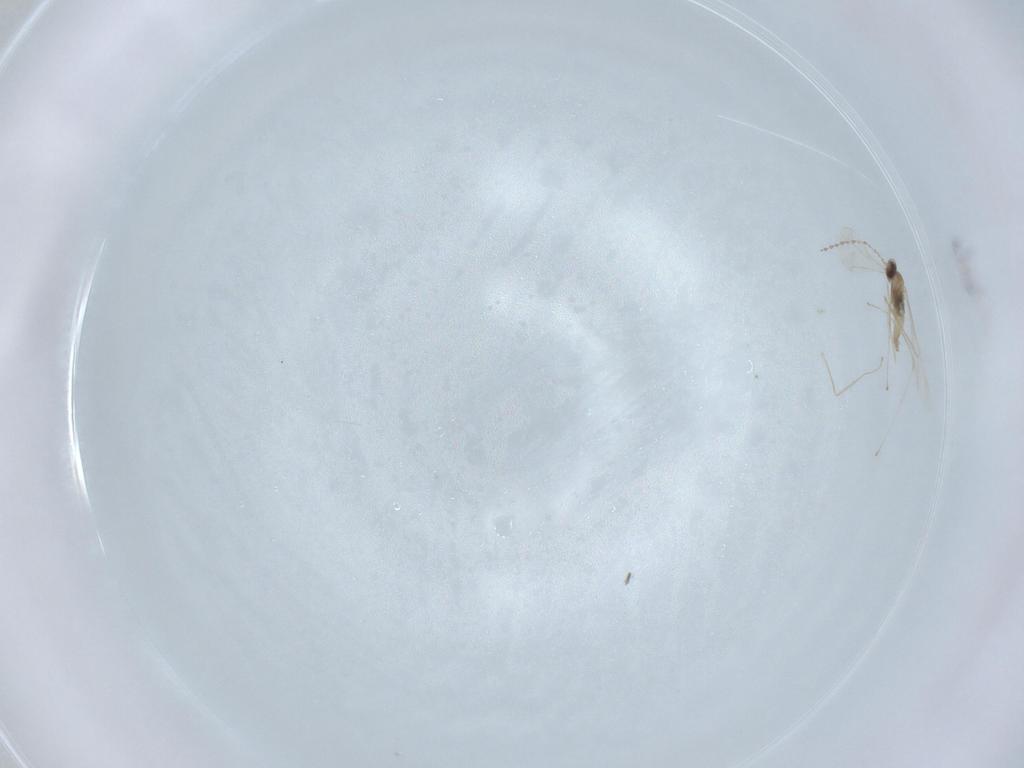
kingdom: Animalia
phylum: Arthropoda
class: Insecta
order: Diptera
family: Cecidomyiidae
